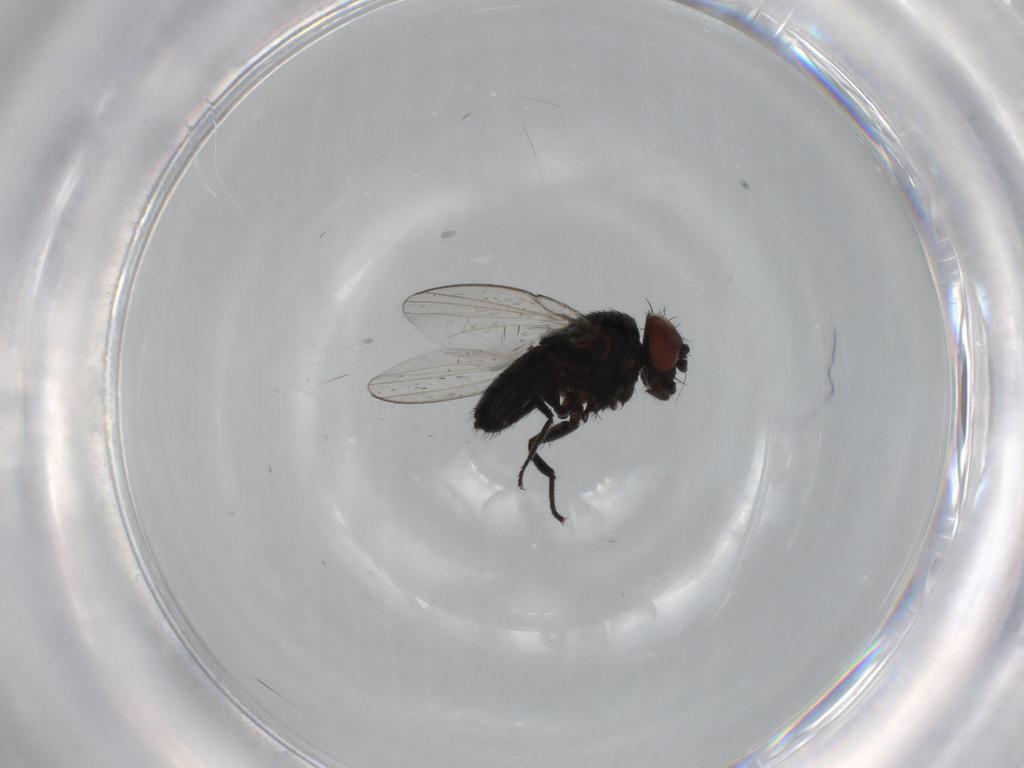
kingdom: Animalia
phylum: Arthropoda
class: Insecta
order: Diptera
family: Milichiidae
